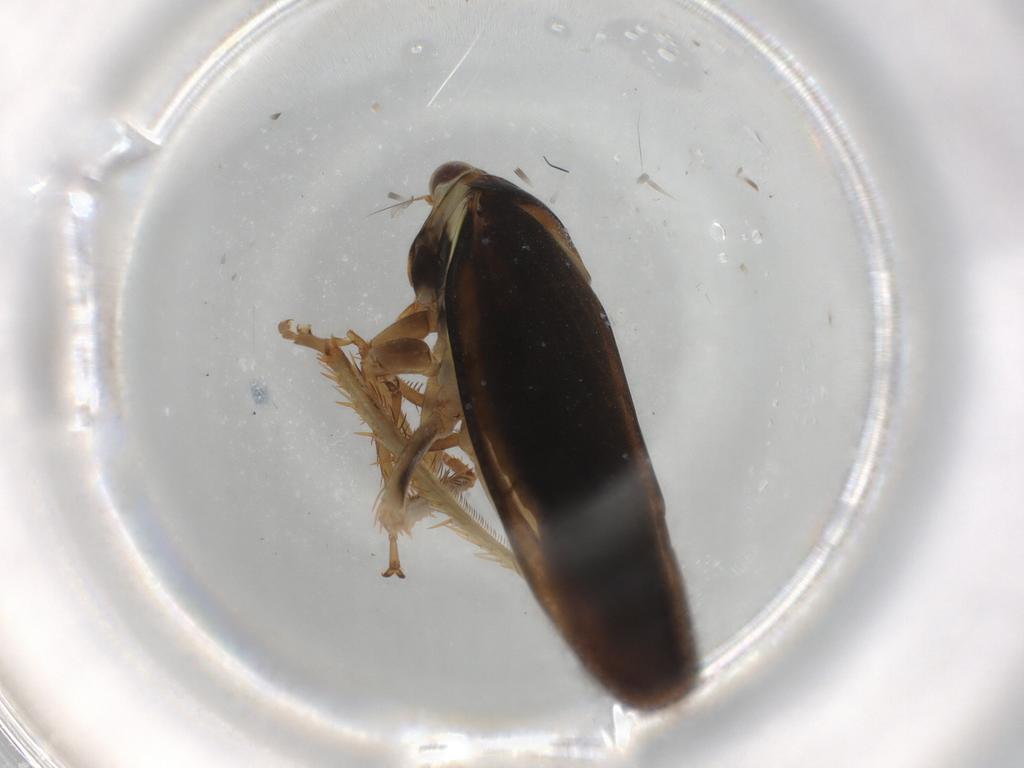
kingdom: Animalia
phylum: Arthropoda
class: Insecta
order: Hemiptera
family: Cicadellidae
